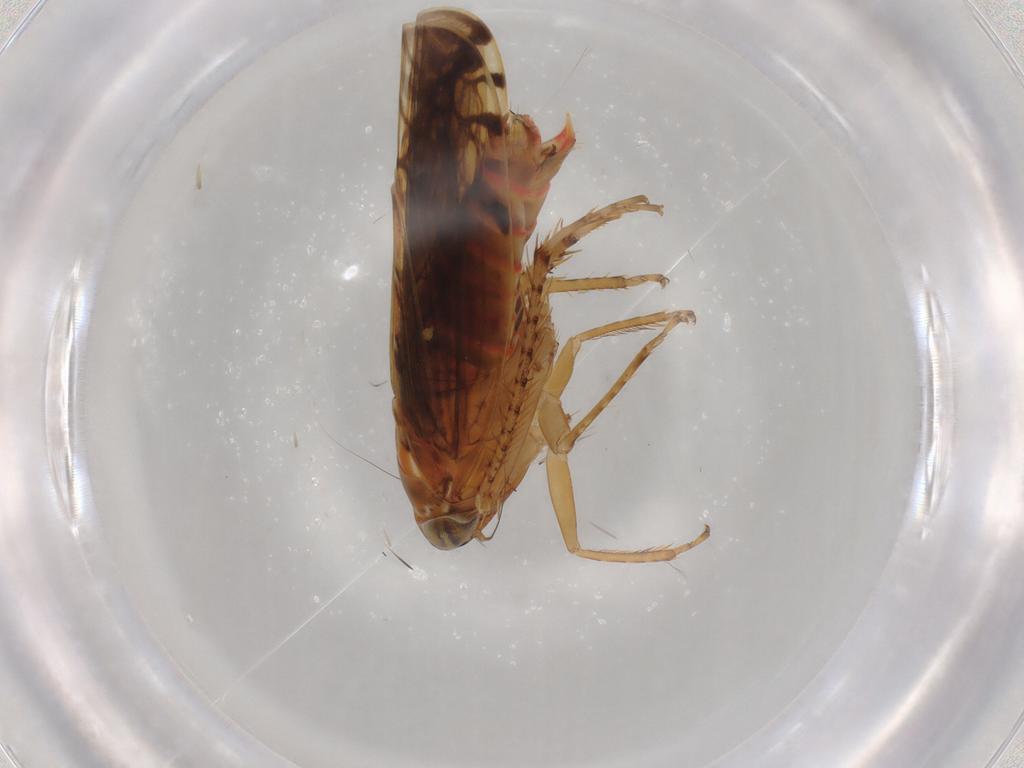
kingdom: Animalia
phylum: Arthropoda
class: Insecta
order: Hemiptera
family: Cicadellidae
